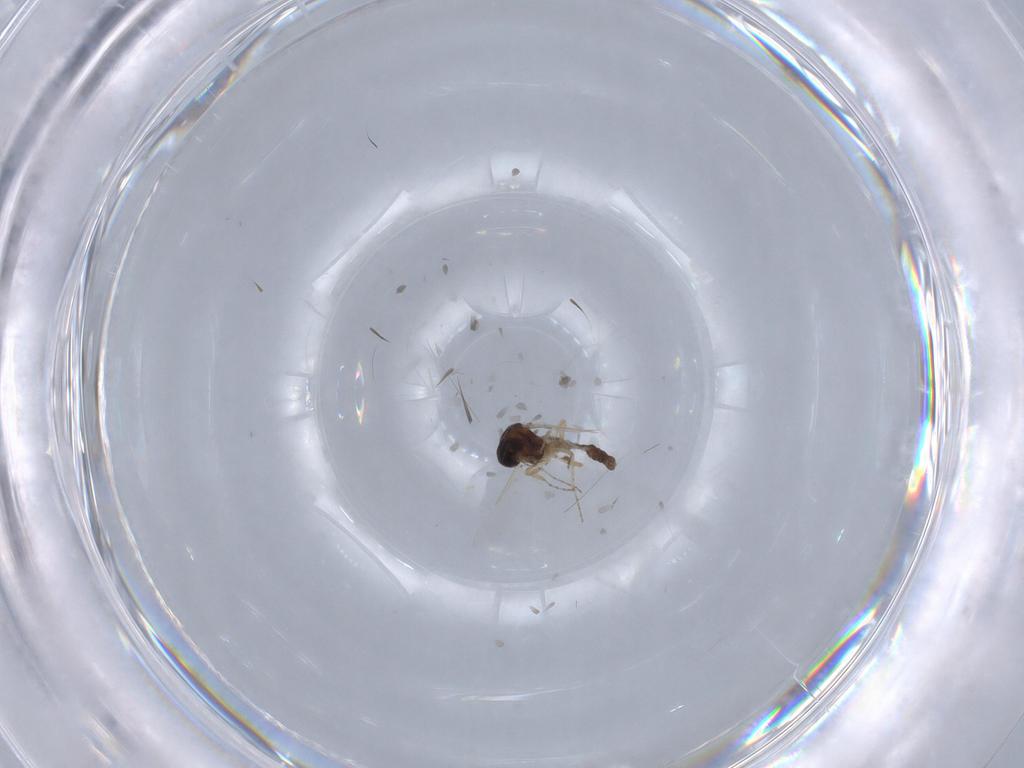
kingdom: Animalia
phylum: Arthropoda
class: Insecta
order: Diptera
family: Ceratopogonidae
